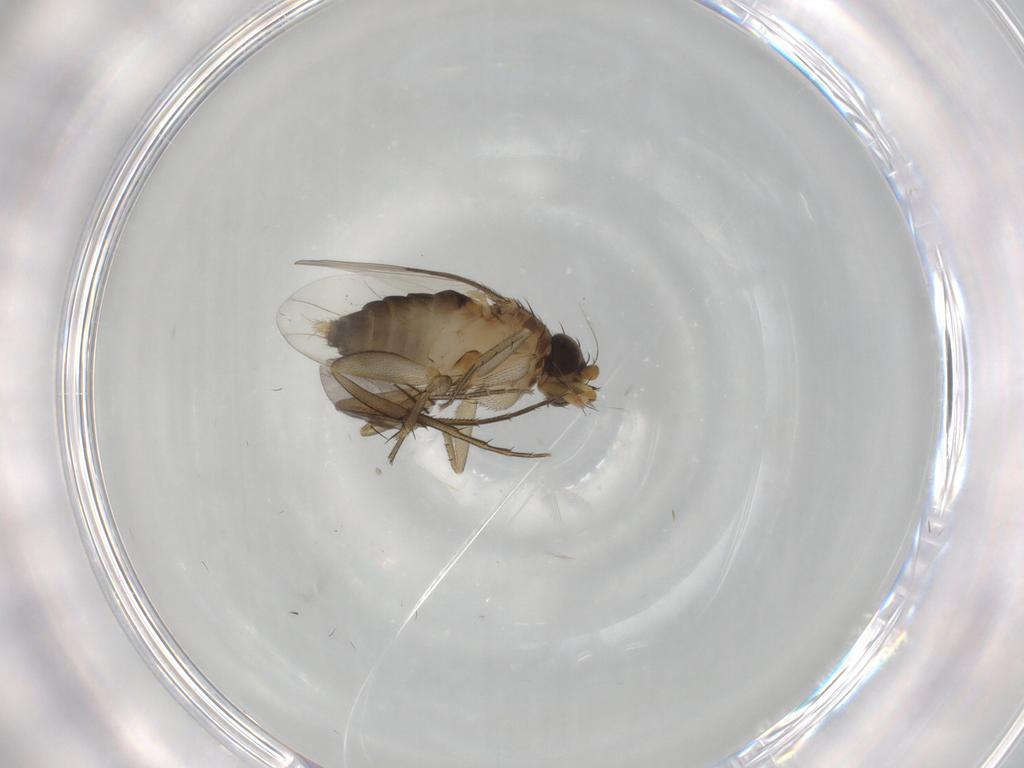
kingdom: Animalia
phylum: Arthropoda
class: Insecta
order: Diptera
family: Phoridae
